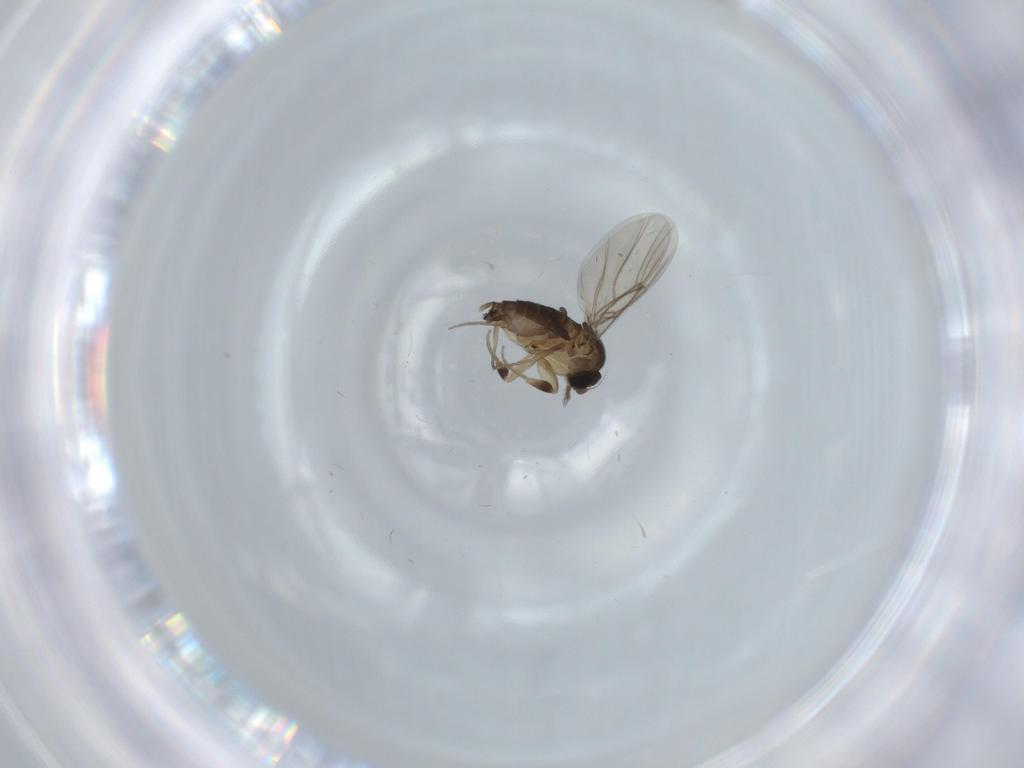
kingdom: Animalia
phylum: Arthropoda
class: Insecta
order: Diptera
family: Phoridae
